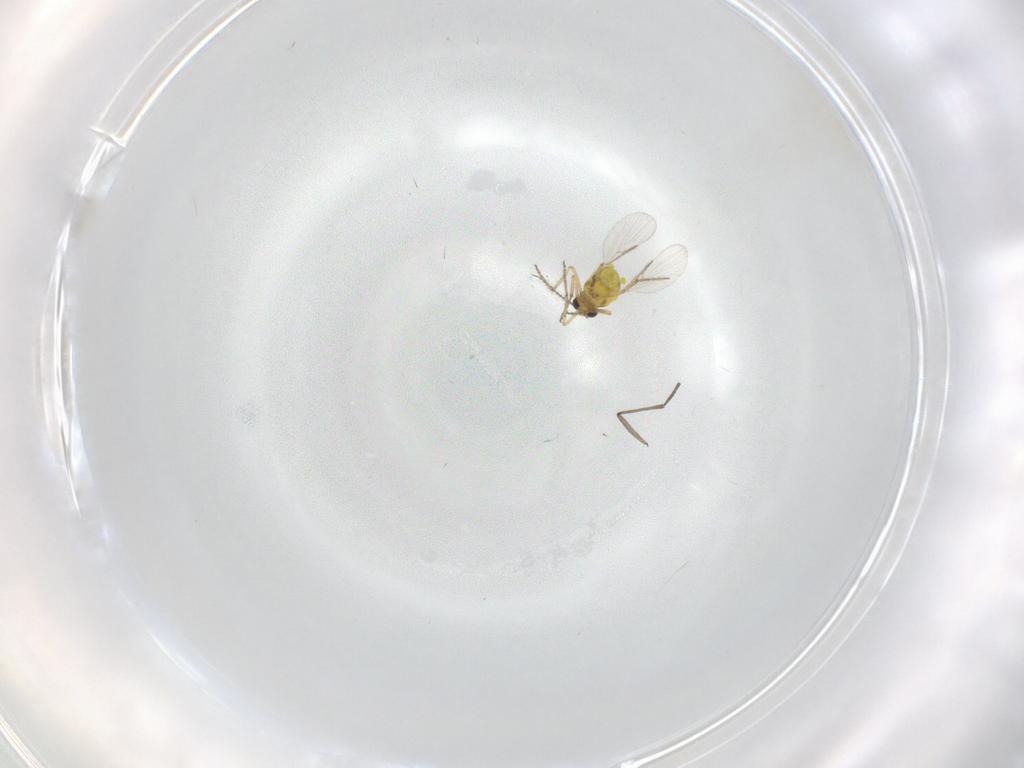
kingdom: Animalia
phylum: Arthropoda
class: Insecta
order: Diptera
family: Ceratopogonidae
